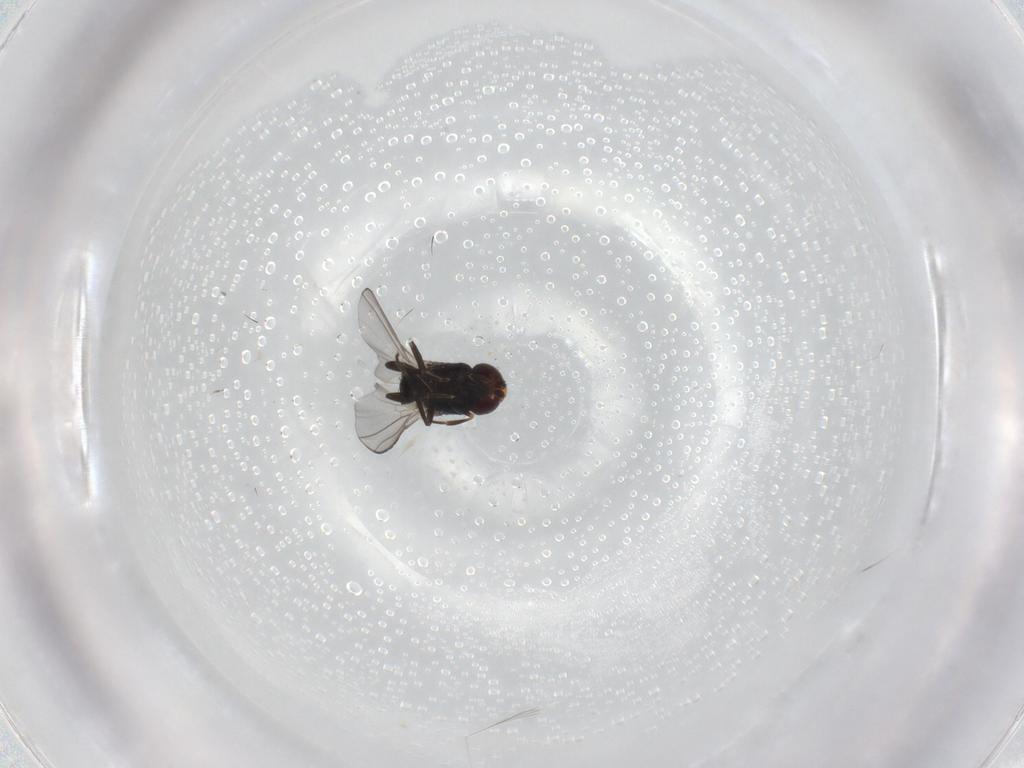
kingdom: Animalia
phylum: Arthropoda
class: Insecta
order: Diptera
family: Carnidae
